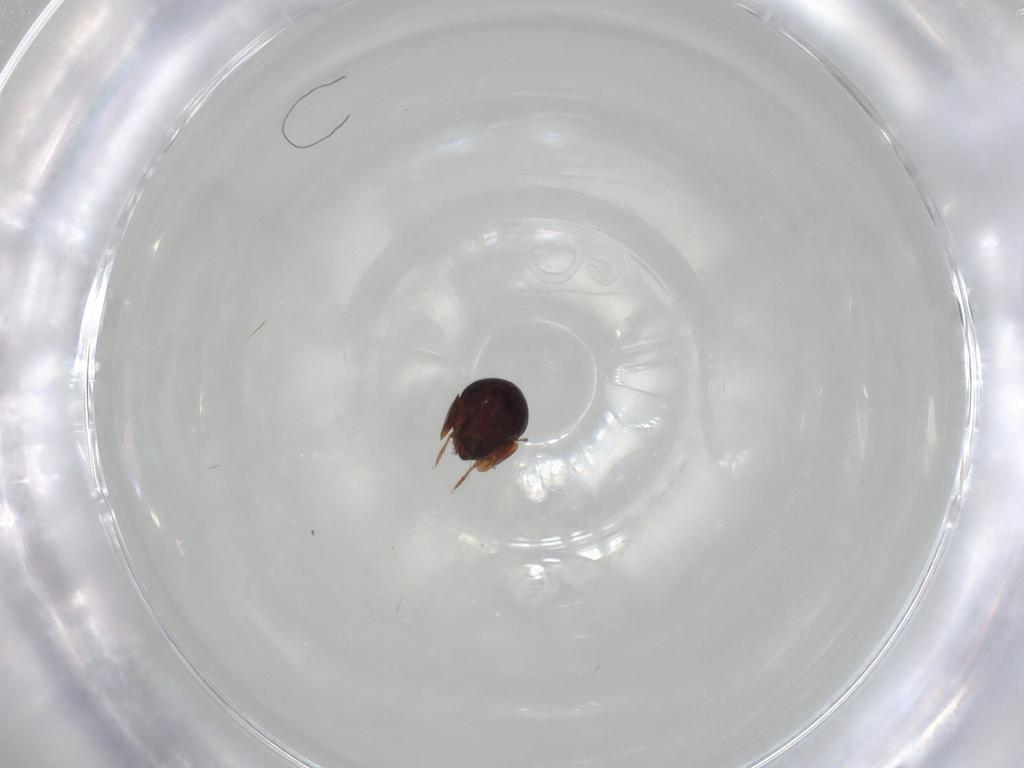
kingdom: Animalia
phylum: Arthropoda
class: Arachnida
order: Sarcoptiformes
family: Galumnidae
